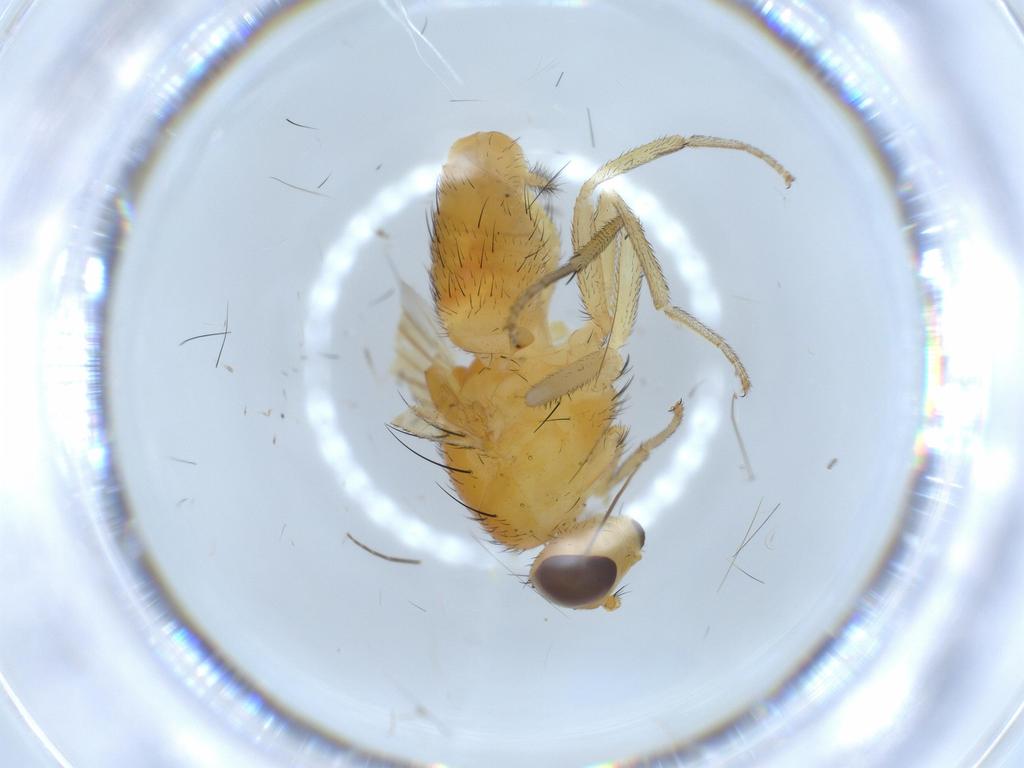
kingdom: Animalia
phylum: Arthropoda
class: Insecta
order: Diptera
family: Lauxaniidae
